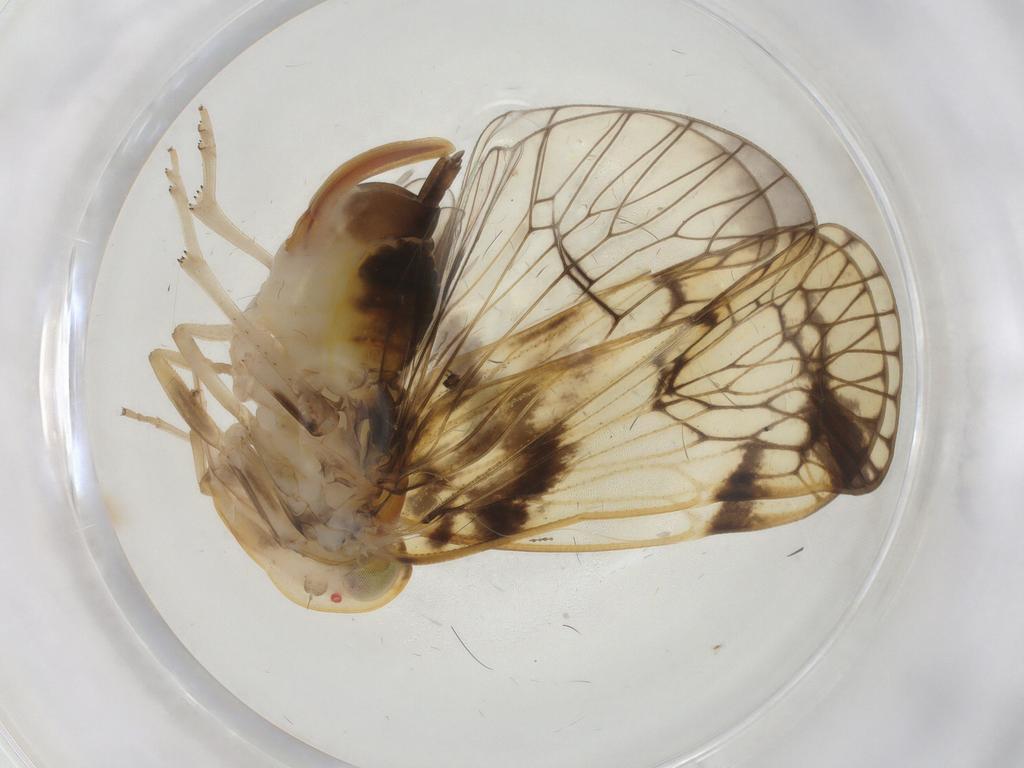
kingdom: Animalia
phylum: Arthropoda
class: Insecta
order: Hemiptera
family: Cixiidae
